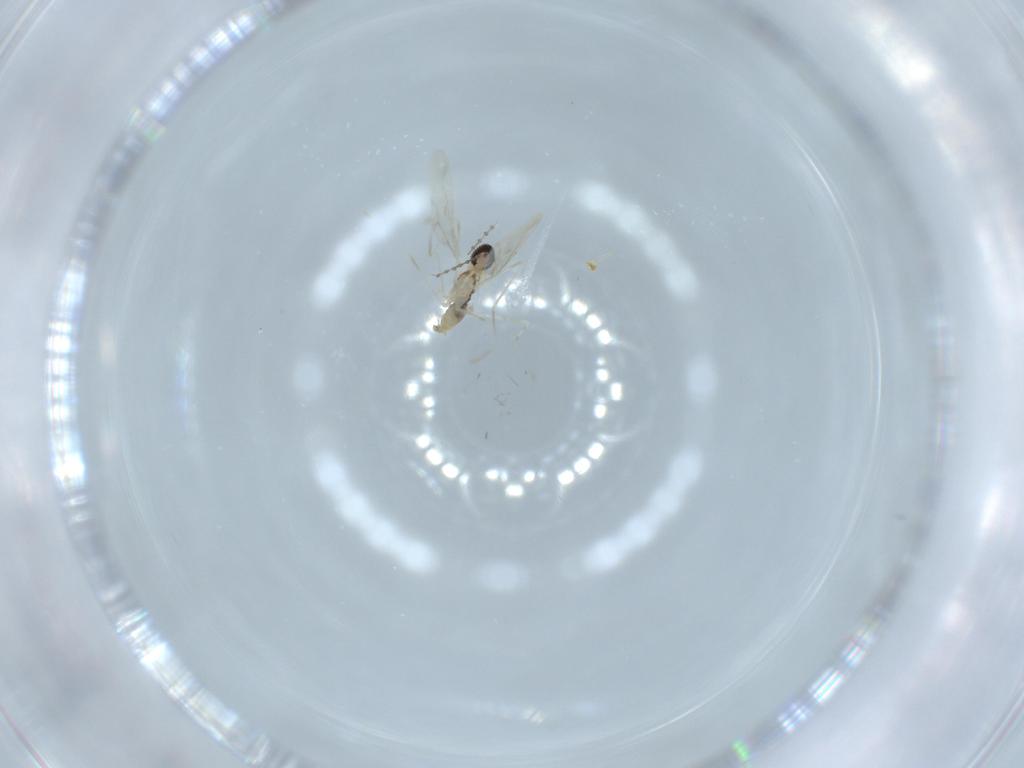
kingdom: Animalia
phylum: Arthropoda
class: Insecta
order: Diptera
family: Cecidomyiidae
